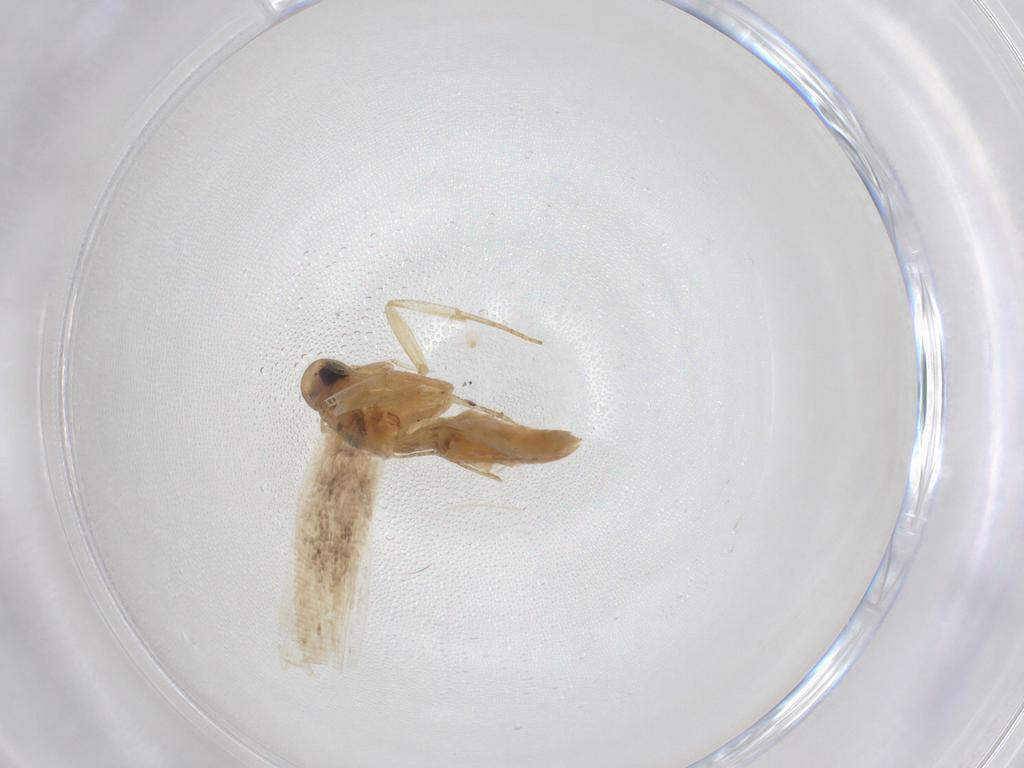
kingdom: Animalia
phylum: Arthropoda
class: Insecta
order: Lepidoptera
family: Gelechiidae
